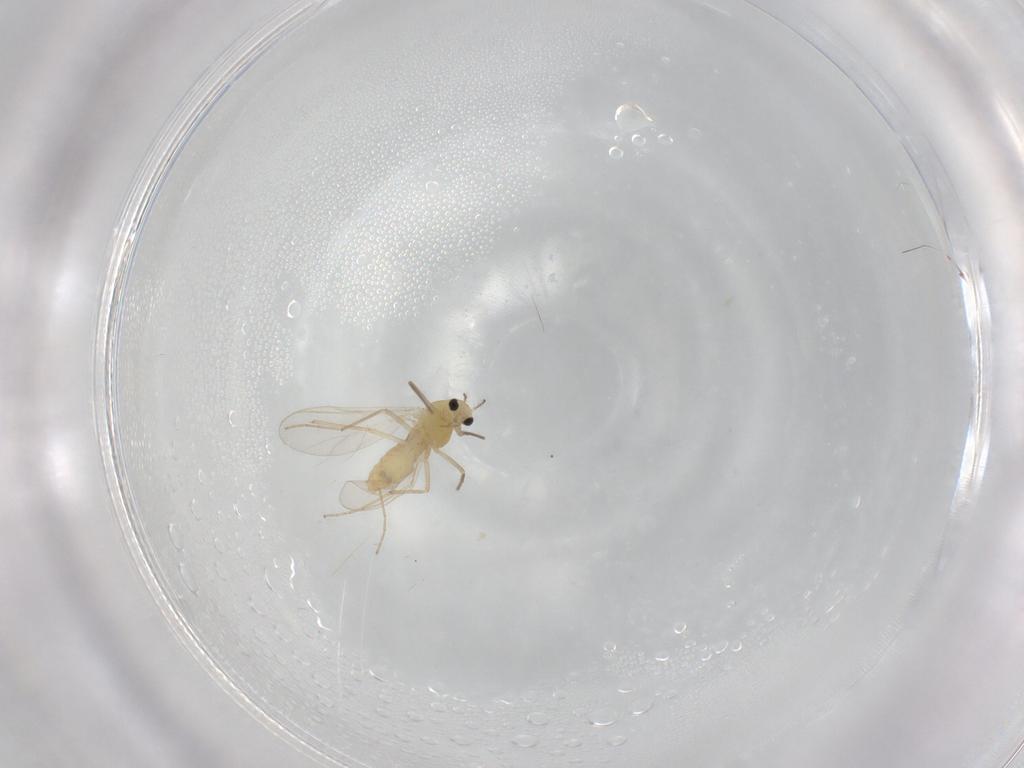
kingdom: Animalia
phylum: Arthropoda
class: Insecta
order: Diptera
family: Chironomidae
